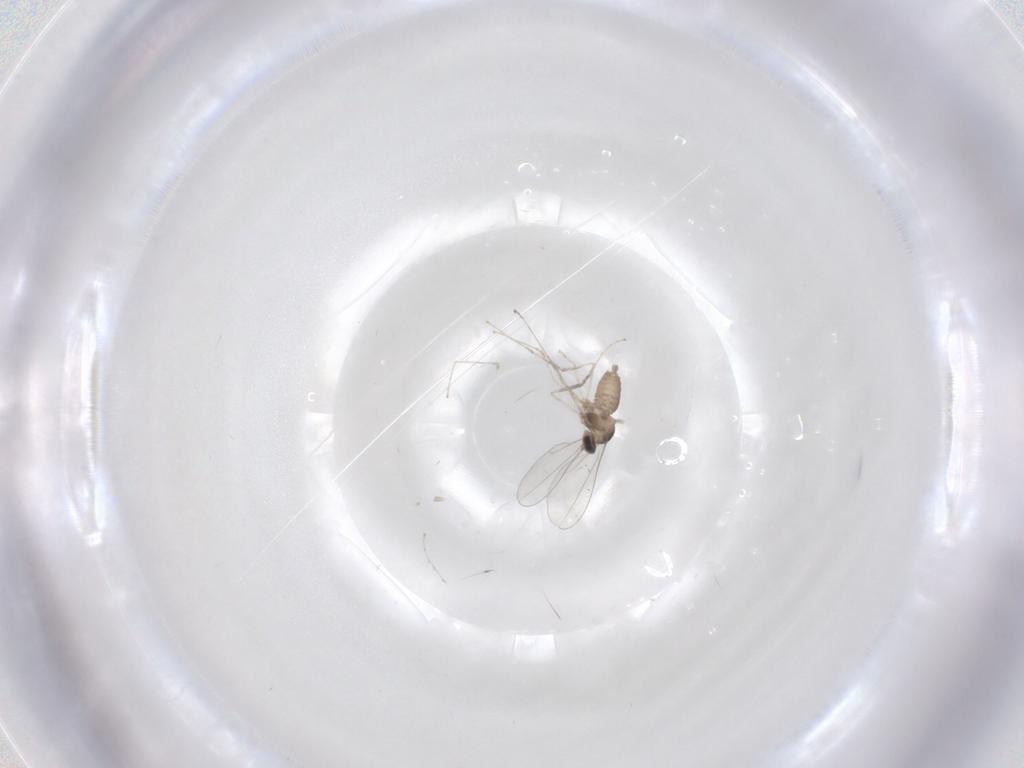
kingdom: Animalia
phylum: Arthropoda
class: Insecta
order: Diptera
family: Cecidomyiidae
